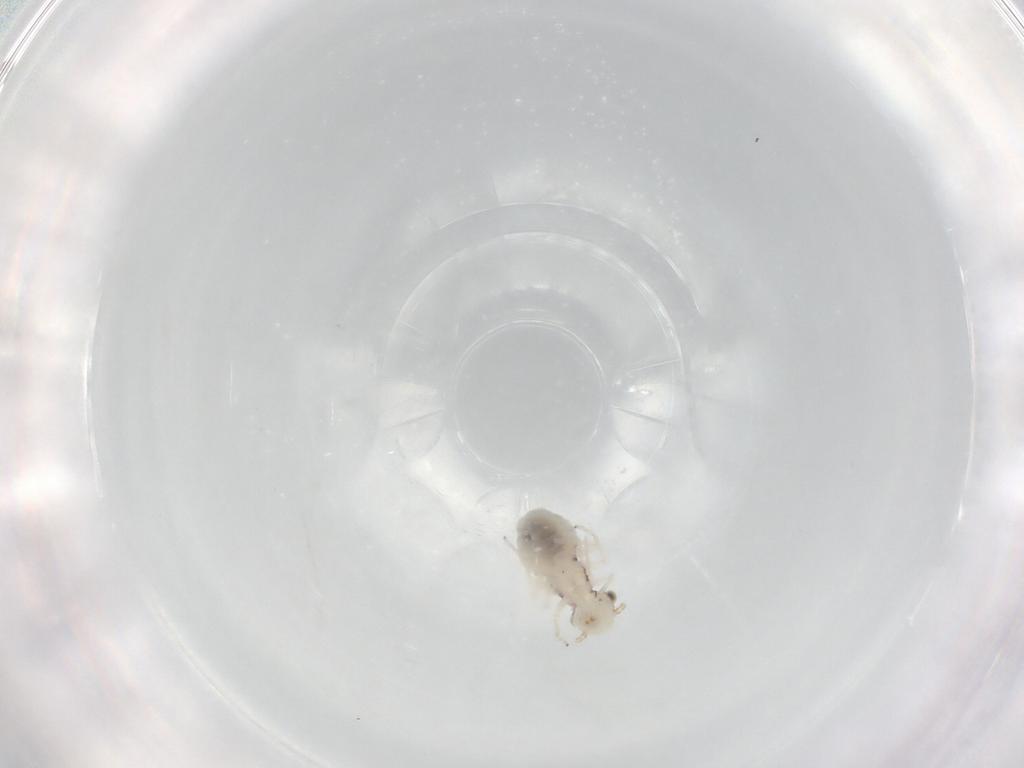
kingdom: Animalia
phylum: Arthropoda
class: Insecta
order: Psocodea
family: Trichopsocidae
